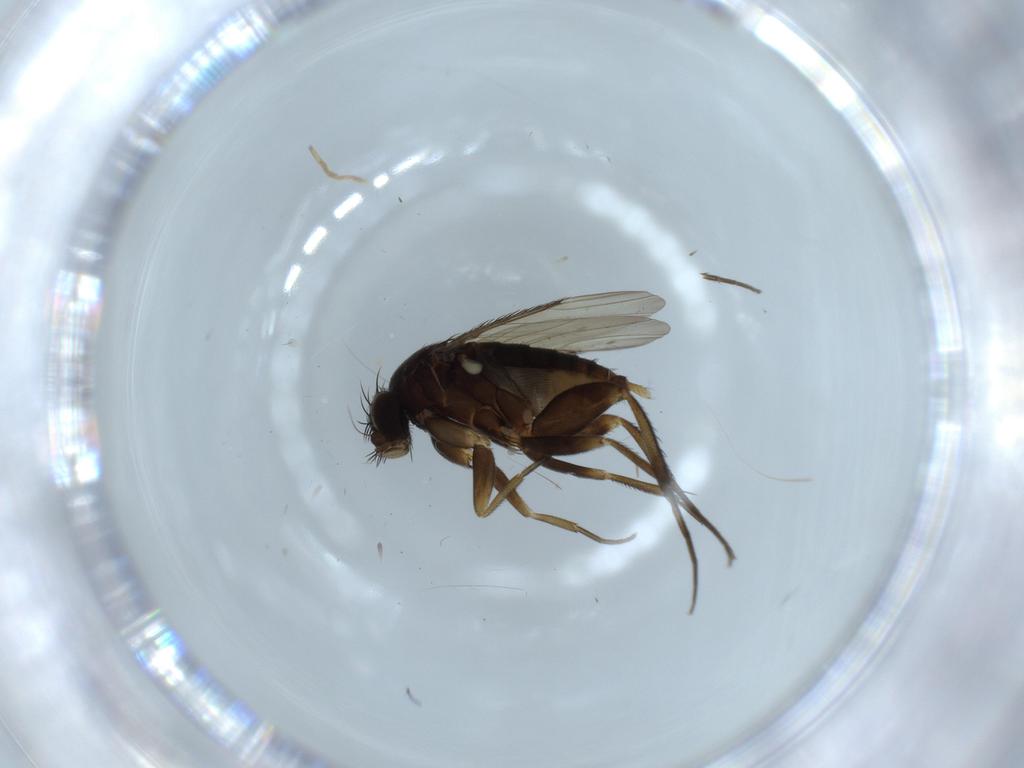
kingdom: Animalia
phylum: Arthropoda
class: Insecta
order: Diptera
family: Phoridae
